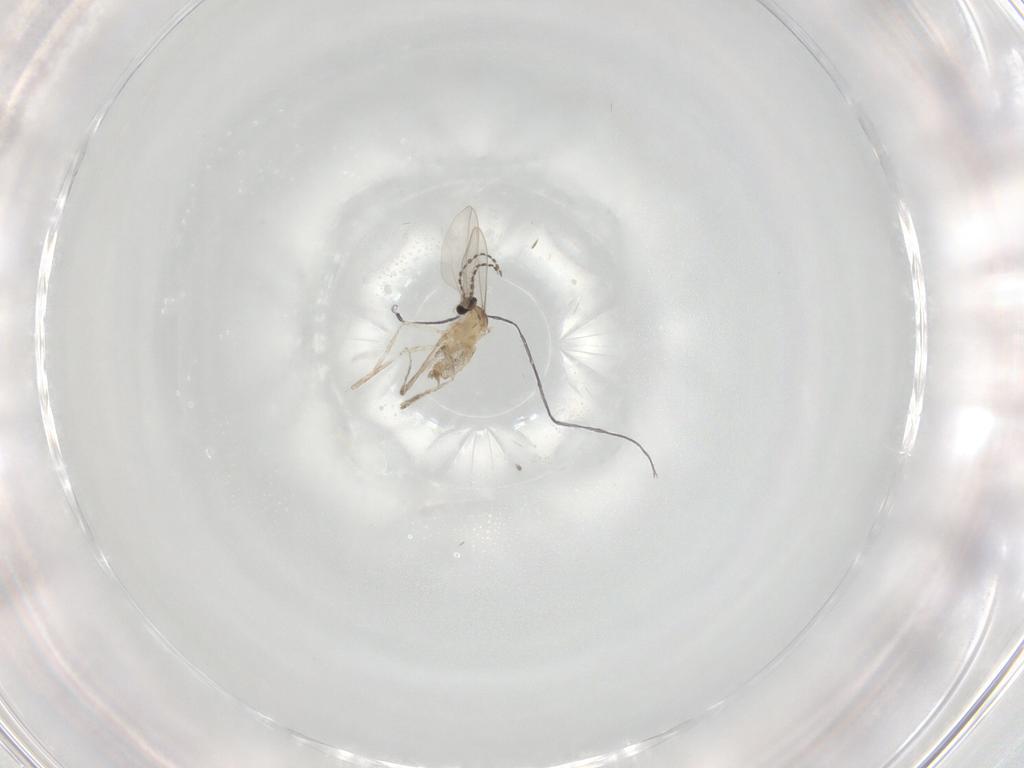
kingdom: Animalia
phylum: Arthropoda
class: Insecta
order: Diptera
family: Cecidomyiidae
